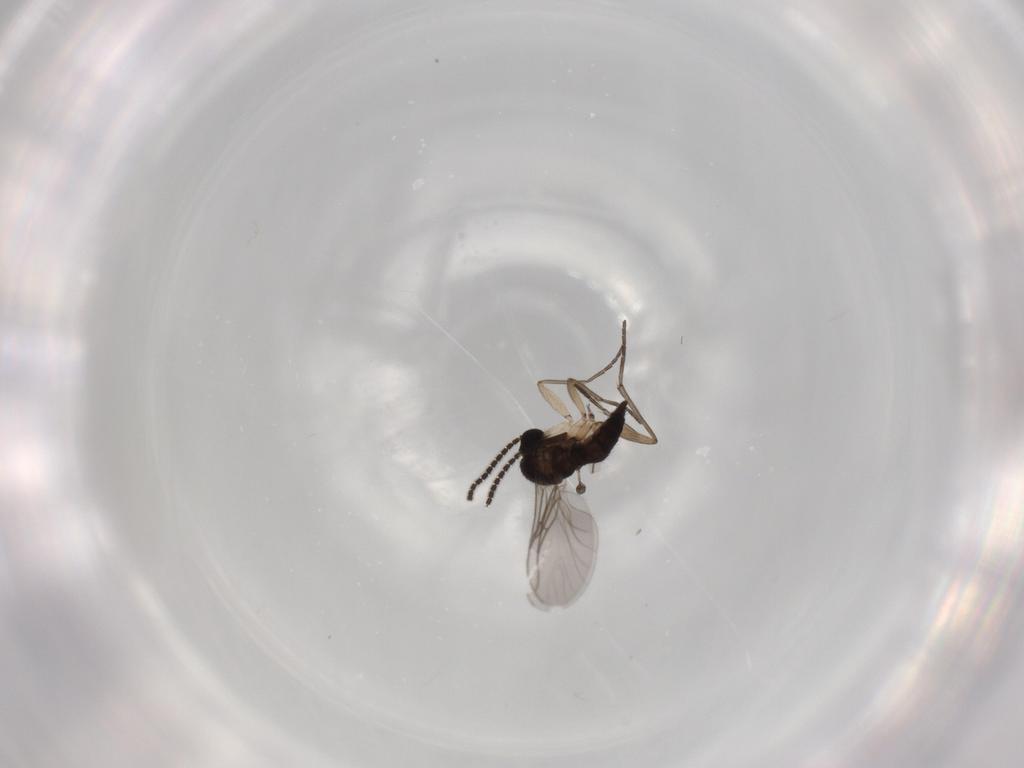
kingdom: Animalia
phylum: Arthropoda
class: Insecta
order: Diptera
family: Sciaridae
